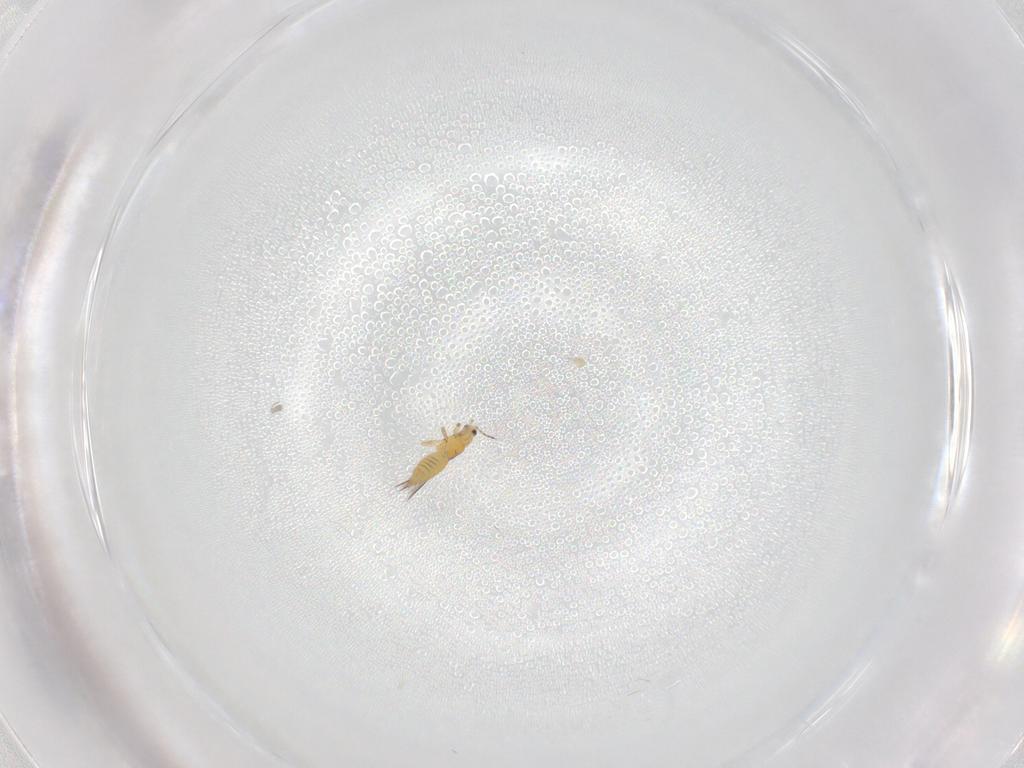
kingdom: Animalia
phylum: Arthropoda
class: Insecta
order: Thysanoptera
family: Thripidae
